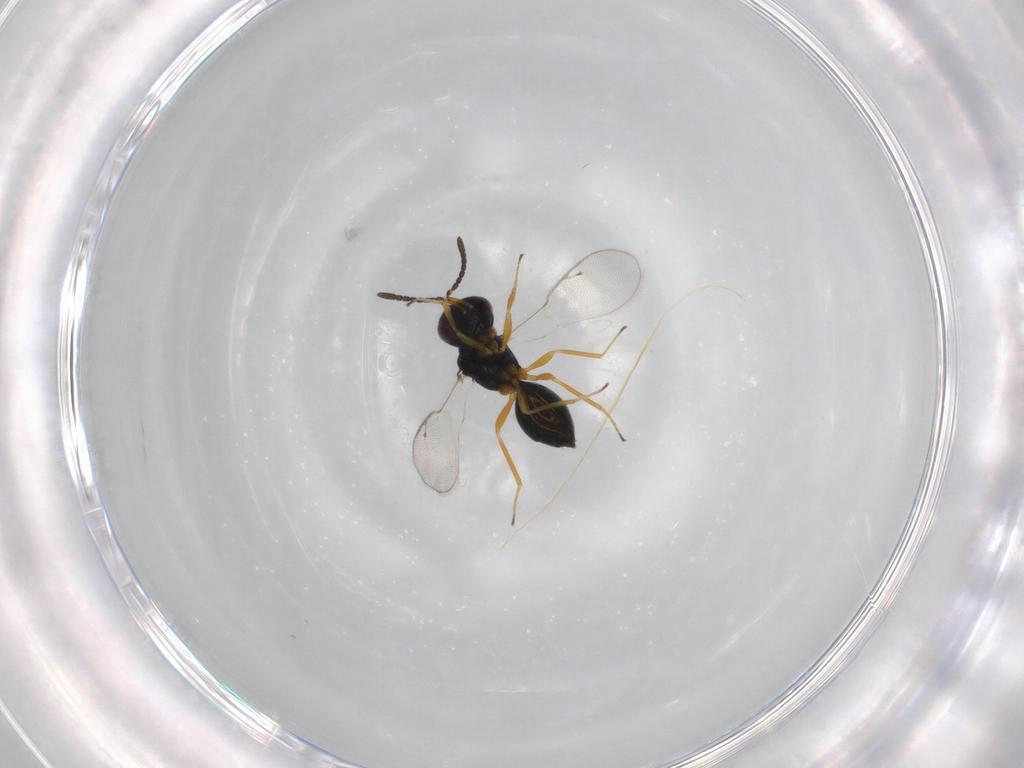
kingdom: Animalia
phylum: Arthropoda
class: Insecta
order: Hymenoptera
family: Pteromalidae
